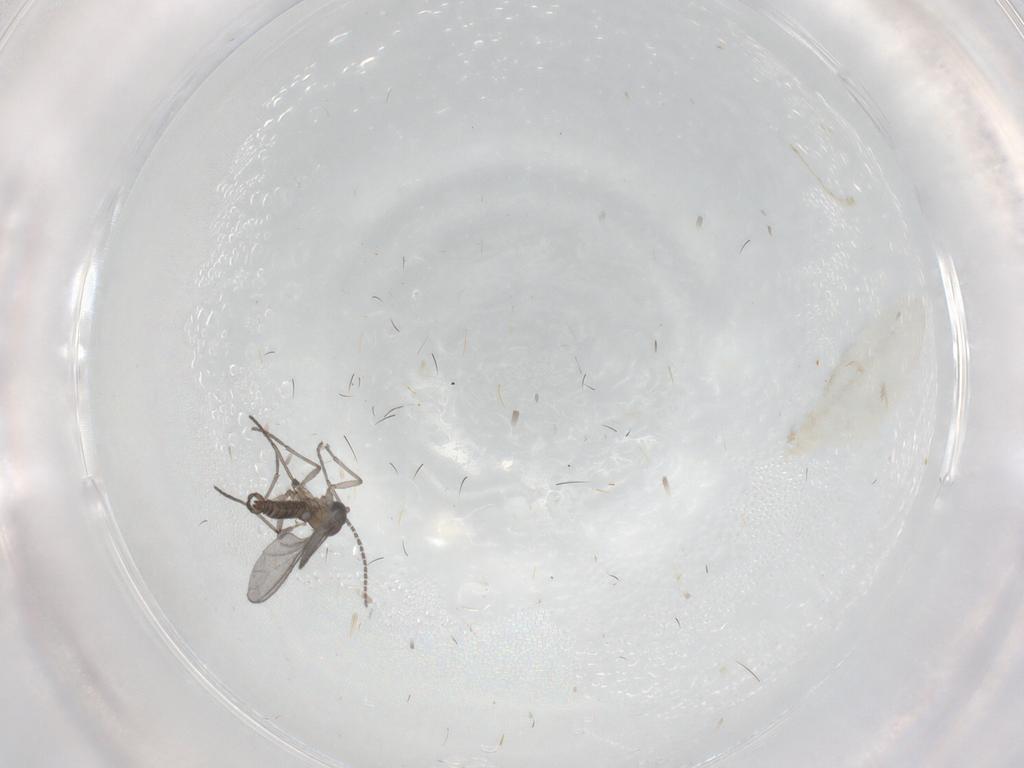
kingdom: Animalia
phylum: Arthropoda
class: Insecta
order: Diptera
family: Sciaridae
